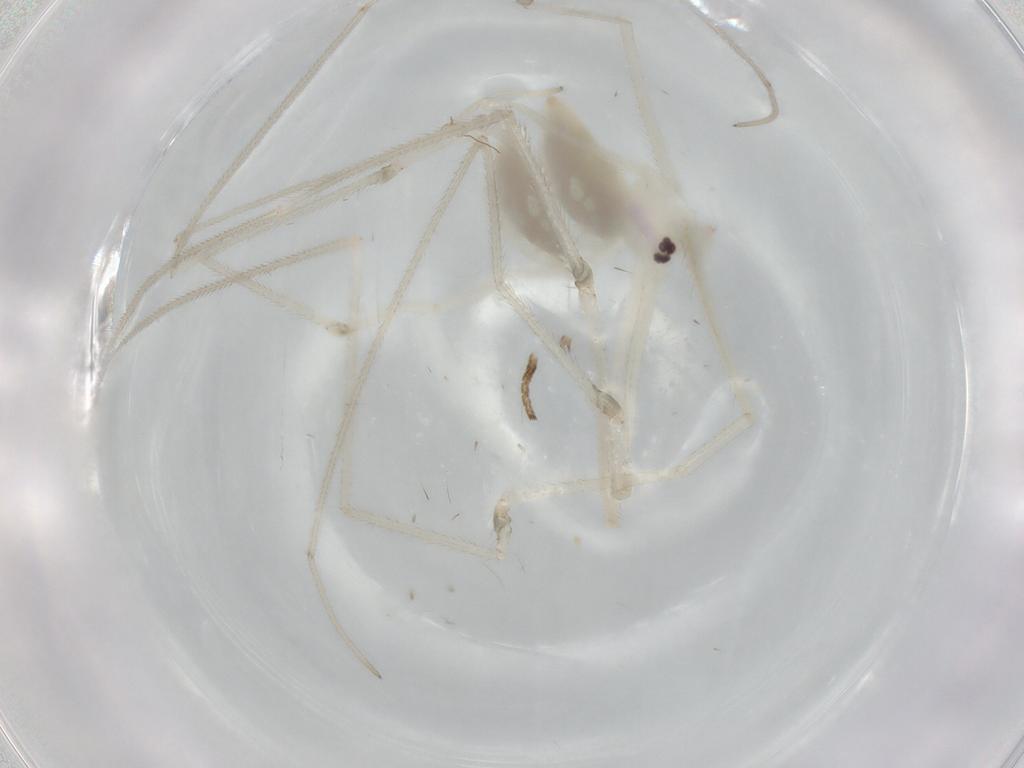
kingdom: Animalia
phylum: Arthropoda
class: Arachnida
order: Araneae
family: Pholcidae
